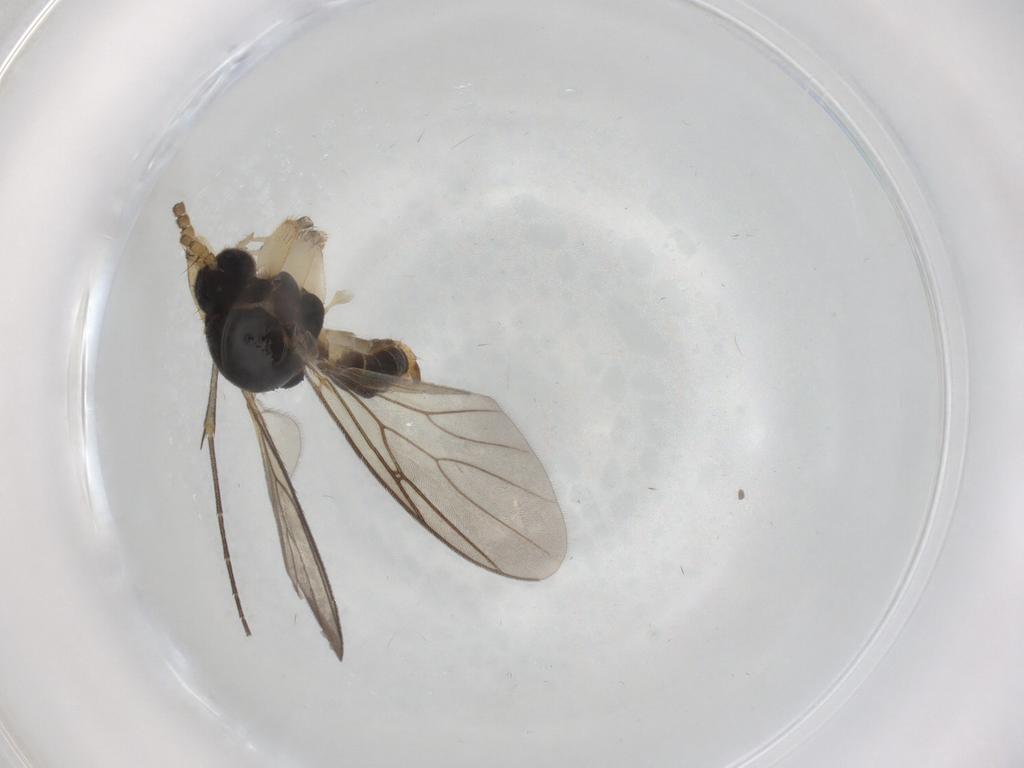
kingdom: Animalia
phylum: Arthropoda
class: Insecta
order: Diptera
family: Phoridae
